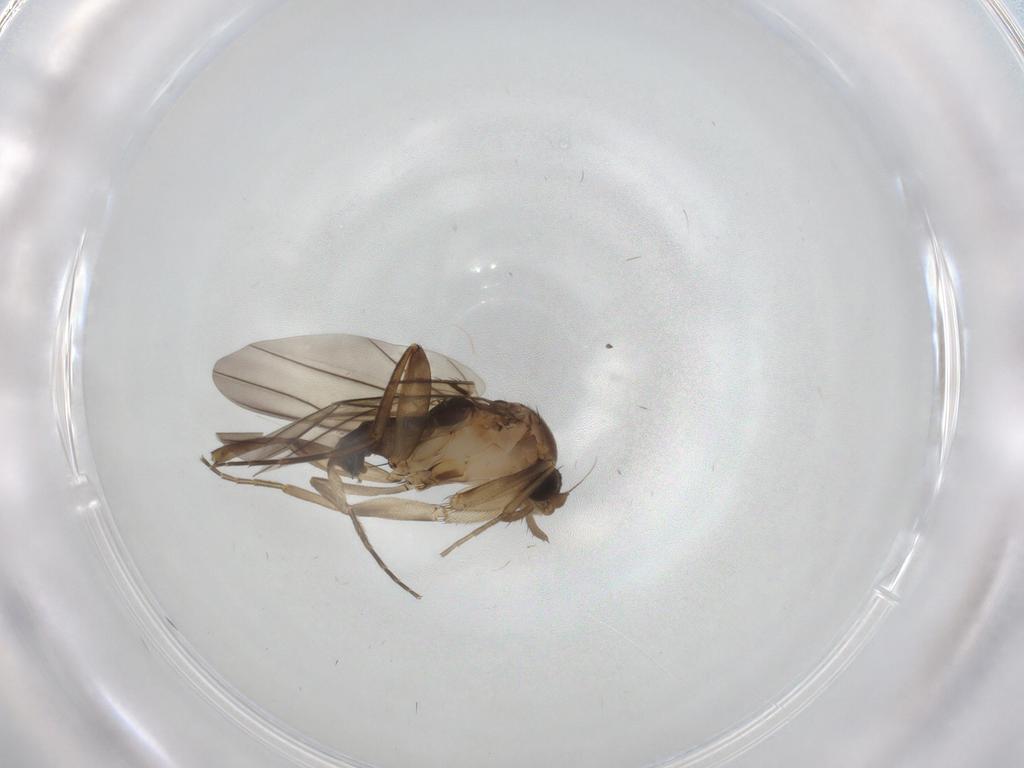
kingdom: Animalia
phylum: Arthropoda
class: Insecta
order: Diptera
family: Phoridae
